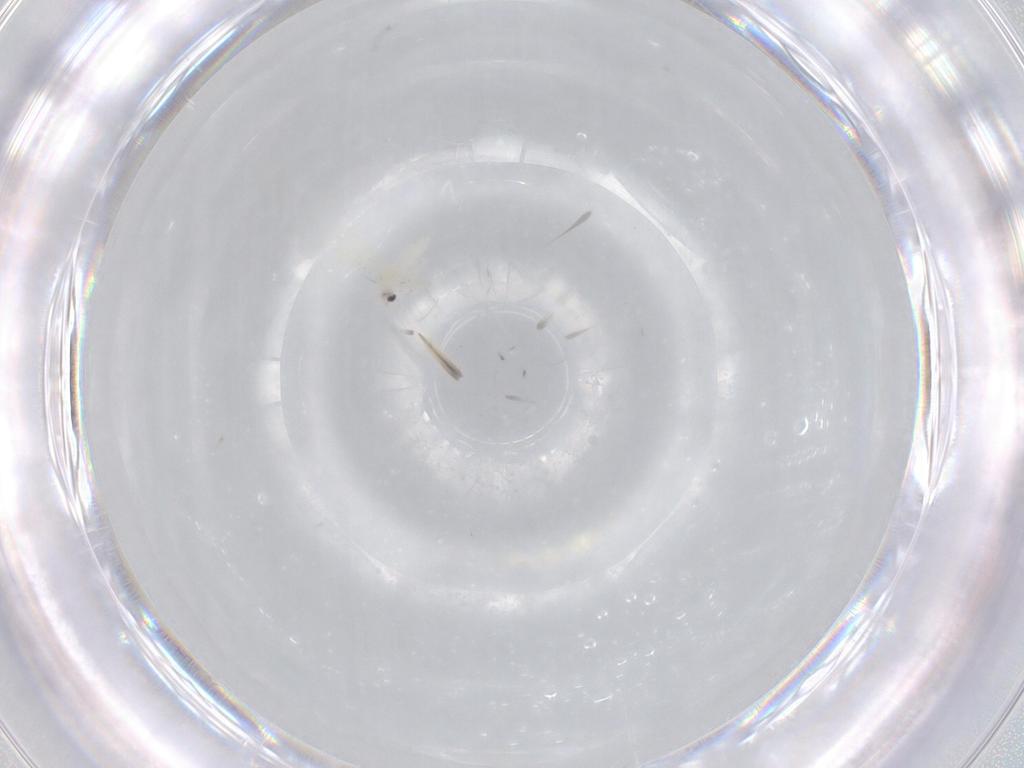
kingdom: Animalia
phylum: Arthropoda
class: Insecta
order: Hemiptera
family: Aleyrodidae
